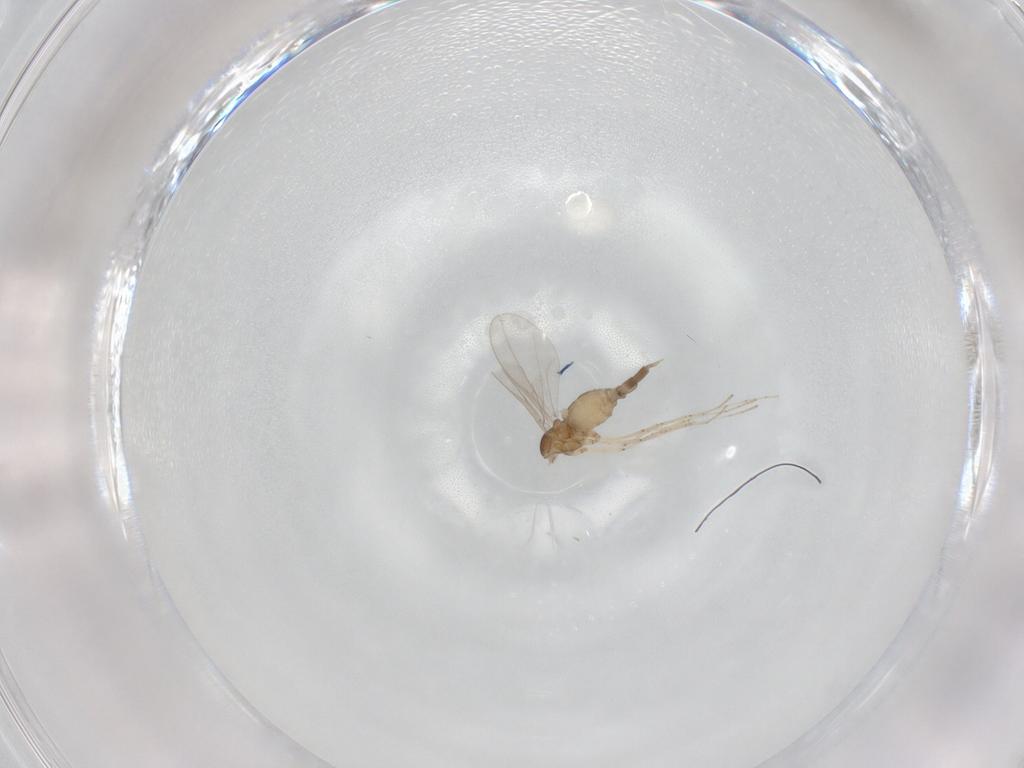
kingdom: Animalia
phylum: Arthropoda
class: Insecta
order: Diptera
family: Cecidomyiidae
